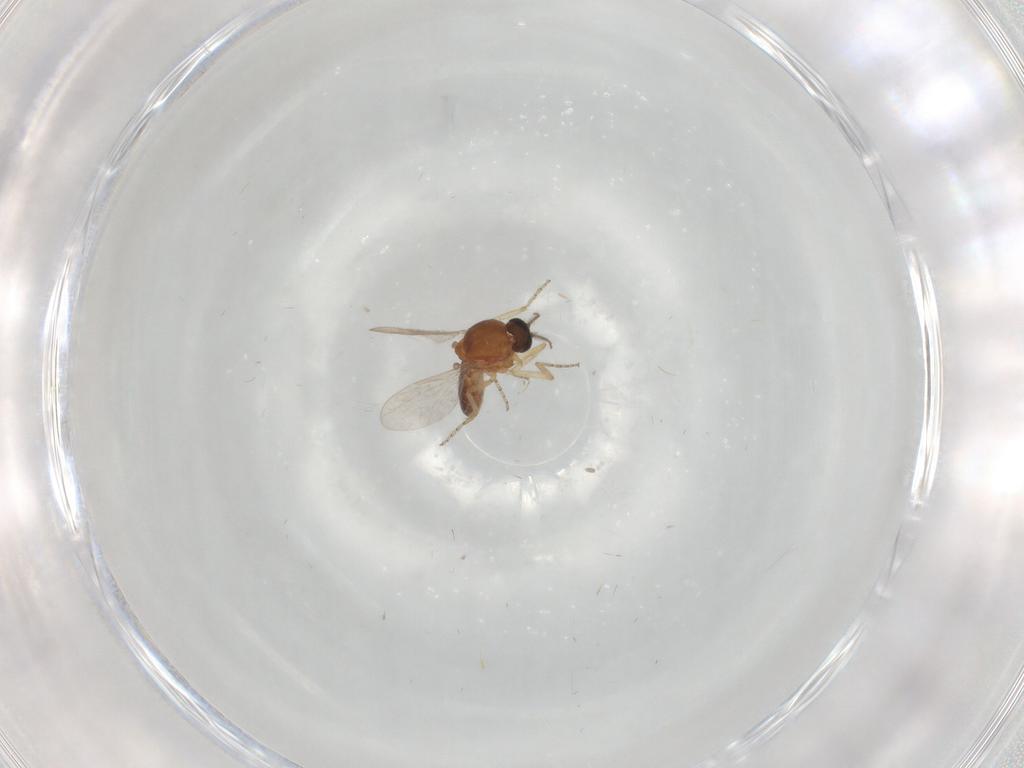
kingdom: Animalia
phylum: Arthropoda
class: Insecta
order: Diptera
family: Ceratopogonidae
